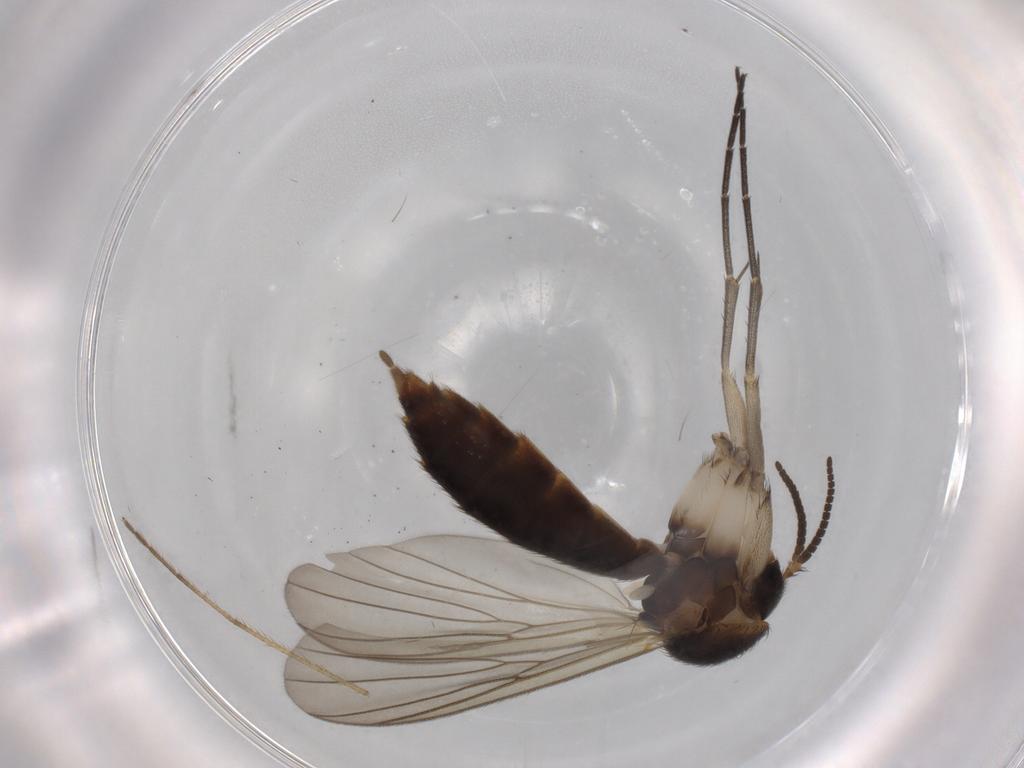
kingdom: Animalia
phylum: Arthropoda
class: Insecta
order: Diptera
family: Mycetophilidae
